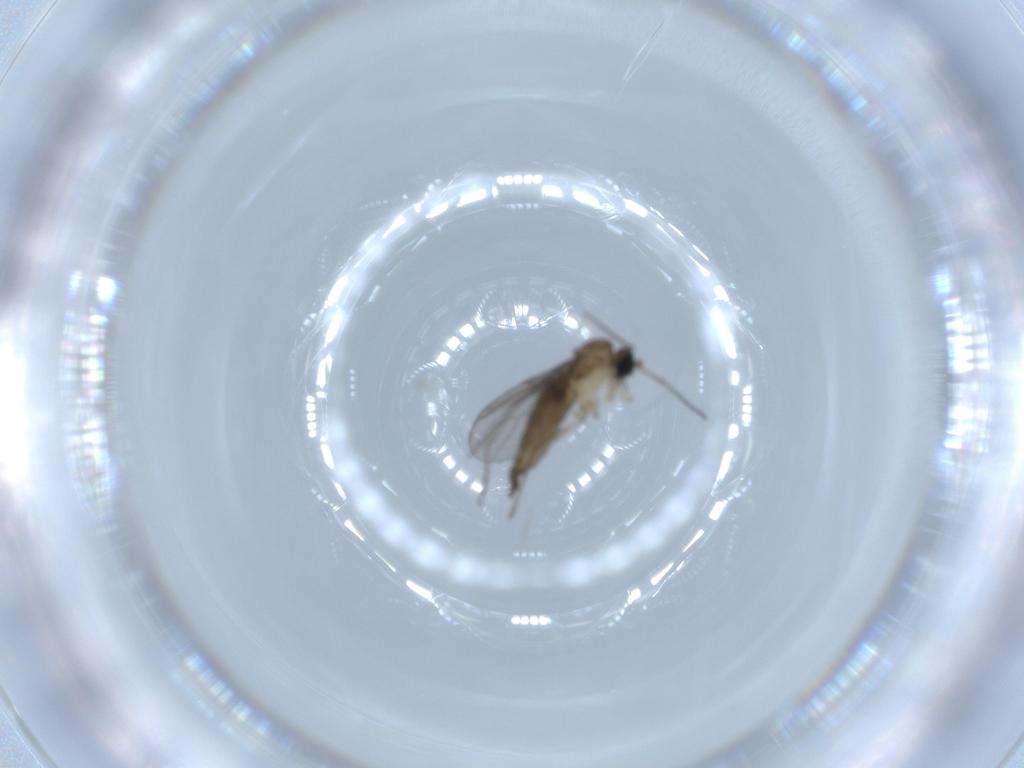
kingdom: Animalia
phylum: Arthropoda
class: Insecta
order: Diptera
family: Sciaridae
